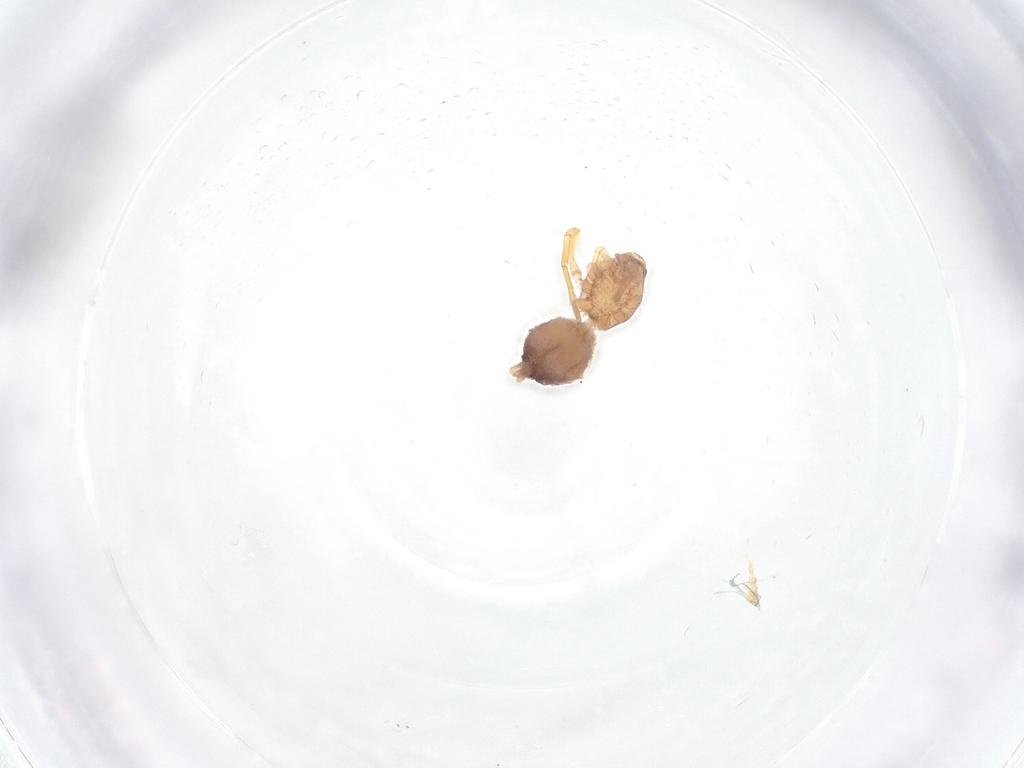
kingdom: Animalia
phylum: Arthropoda
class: Arachnida
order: Araneae
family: Idiopidae
